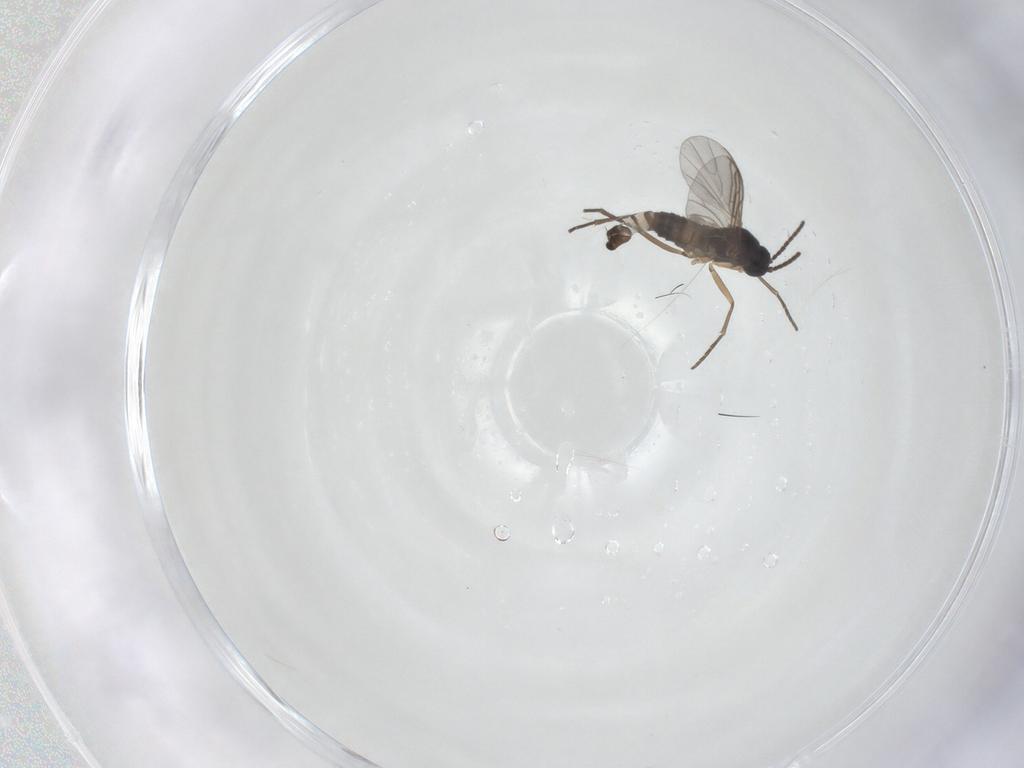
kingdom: Animalia
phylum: Arthropoda
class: Insecta
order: Diptera
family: Sciaridae
